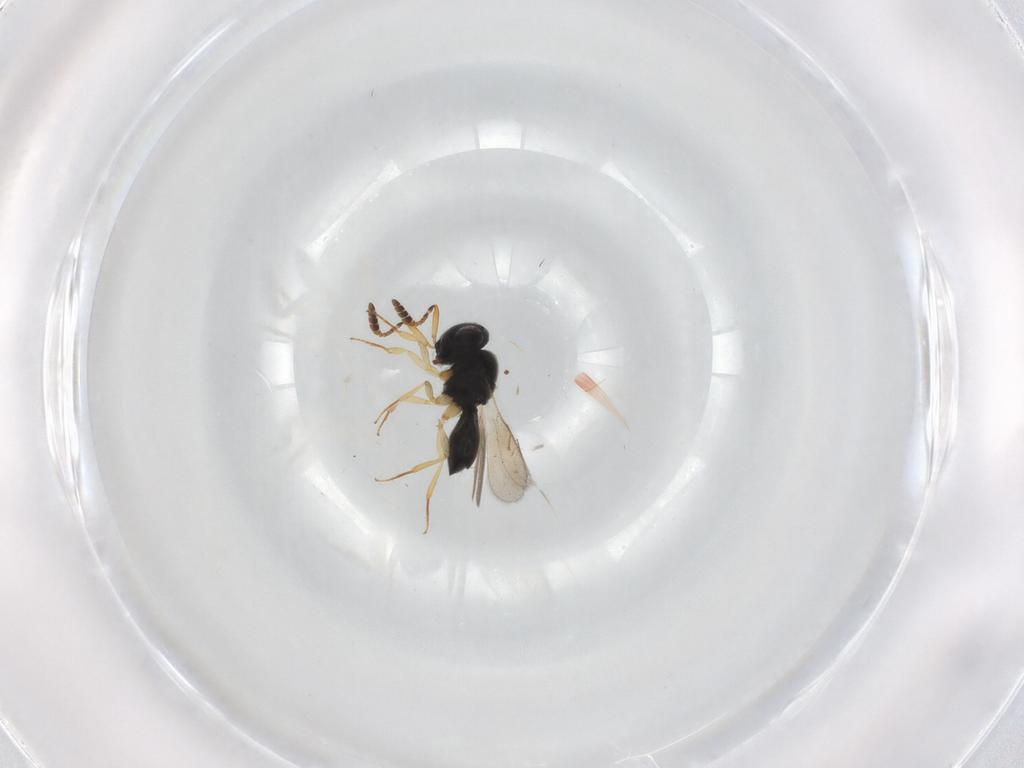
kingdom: Animalia
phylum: Arthropoda
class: Insecta
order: Hymenoptera
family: Scelionidae
